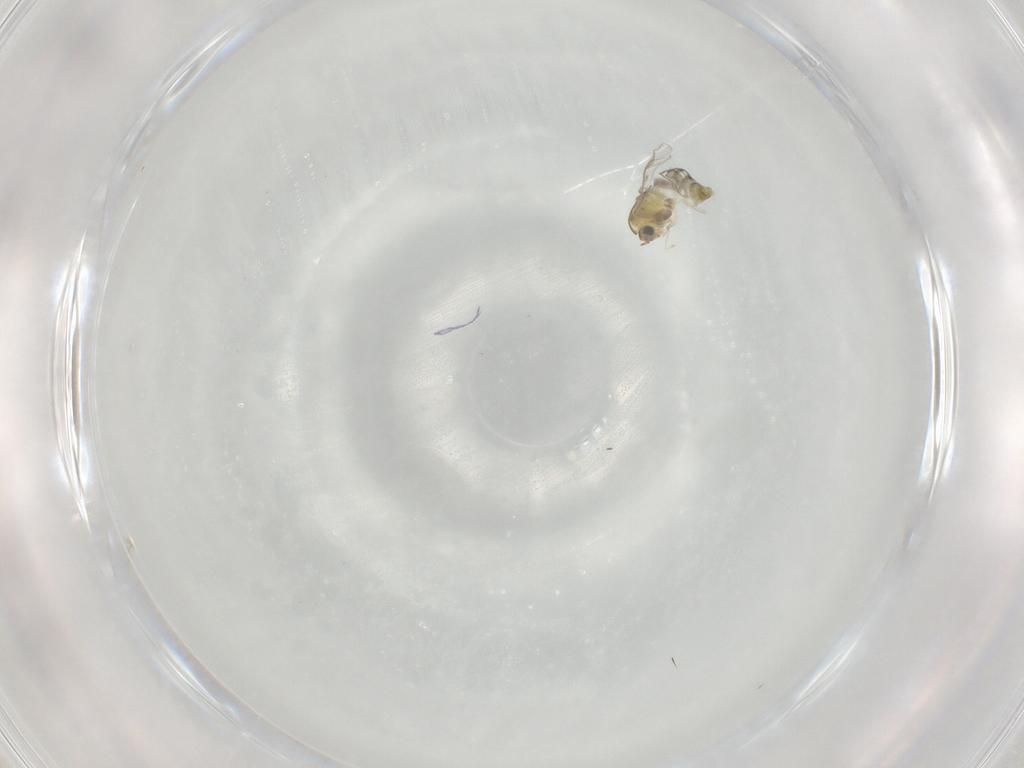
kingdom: Animalia
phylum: Arthropoda
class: Insecta
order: Diptera
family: Chironomidae
